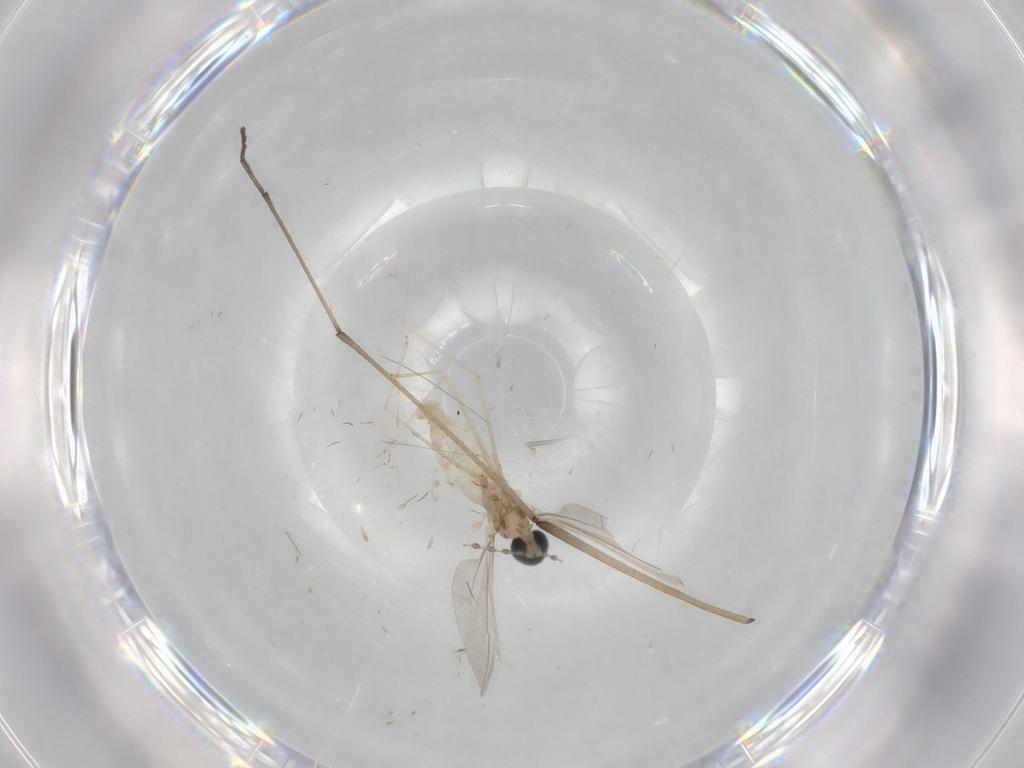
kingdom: Animalia
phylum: Arthropoda
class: Insecta
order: Diptera
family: Cecidomyiidae
